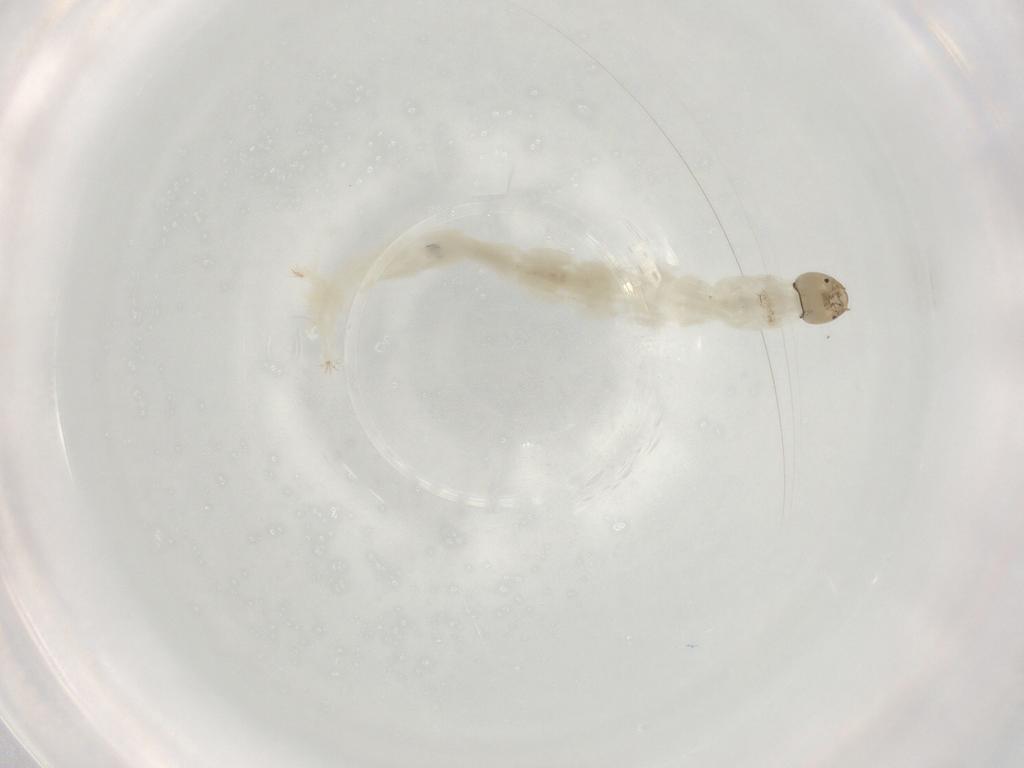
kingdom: Animalia
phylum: Arthropoda
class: Insecta
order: Diptera
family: Chironomidae
